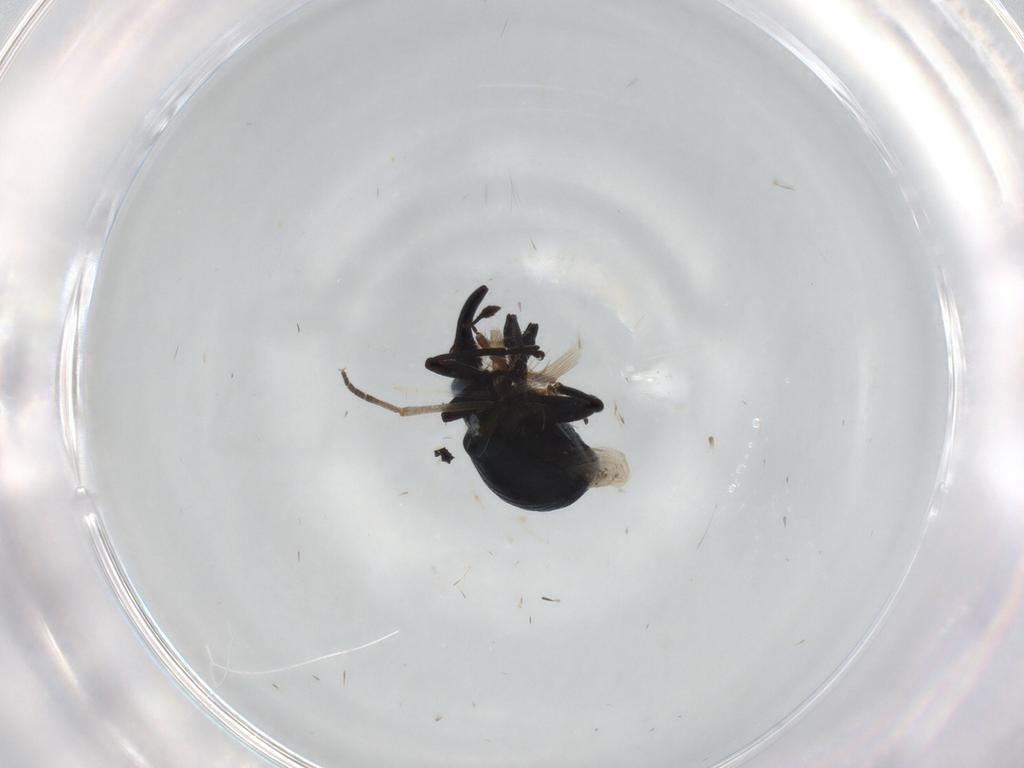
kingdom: Animalia
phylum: Arthropoda
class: Insecta
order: Coleoptera
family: Brentidae
